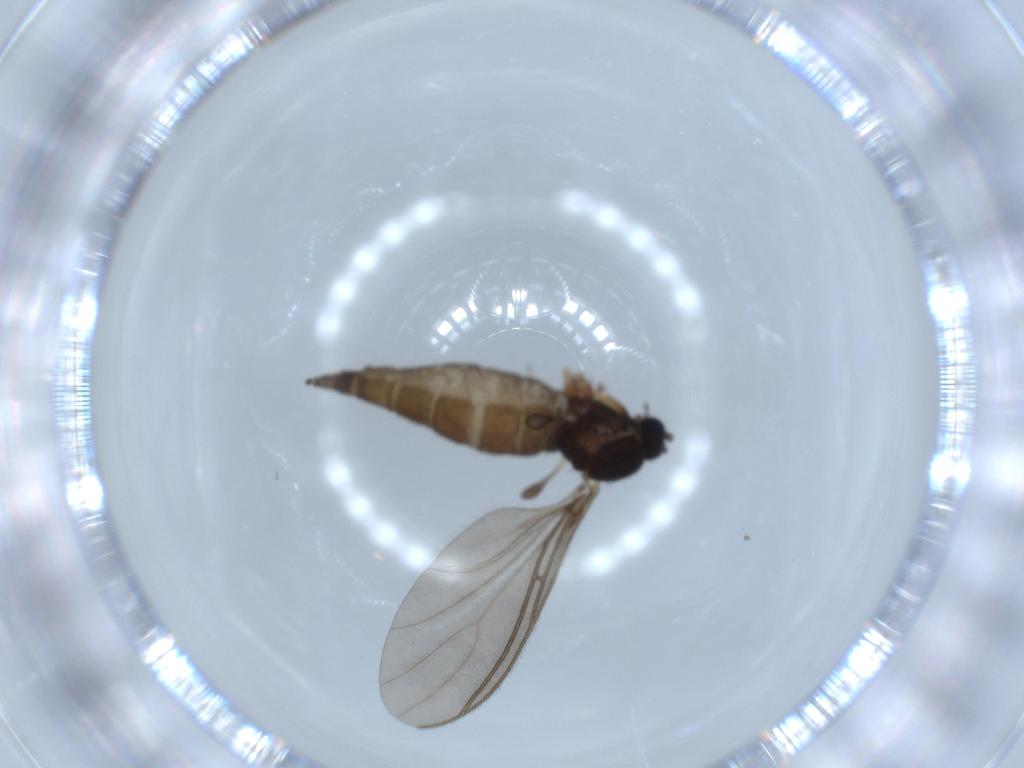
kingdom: Animalia
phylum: Arthropoda
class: Insecta
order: Diptera
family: Sciaridae
